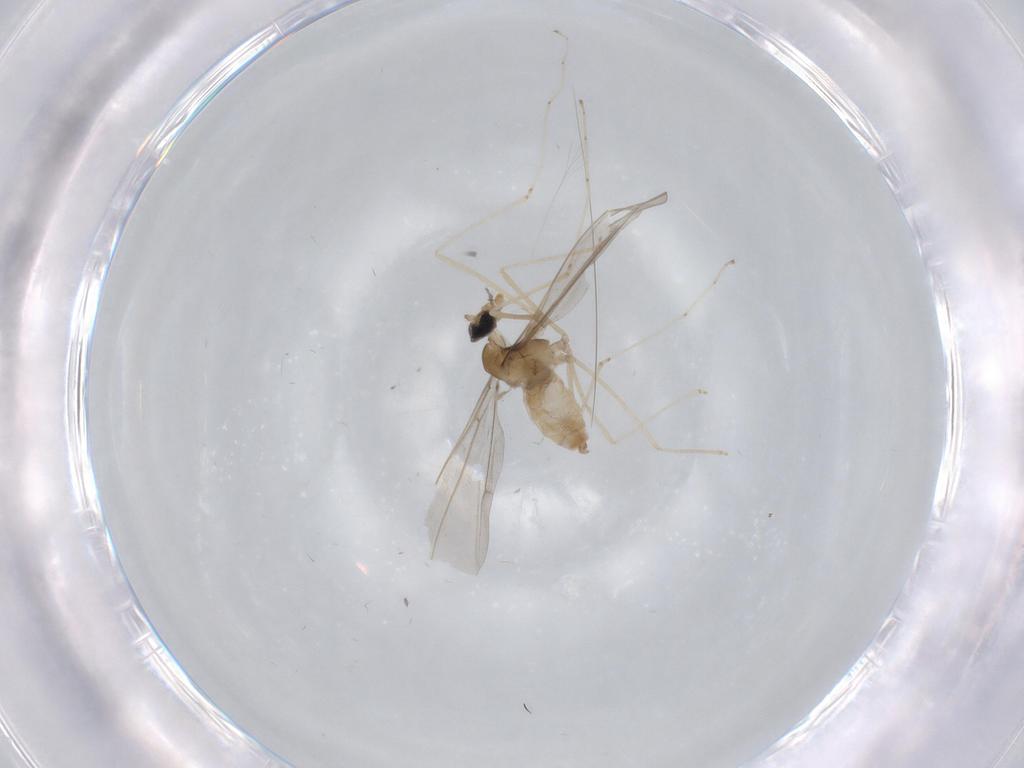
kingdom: Animalia
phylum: Arthropoda
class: Insecta
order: Diptera
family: Cecidomyiidae
